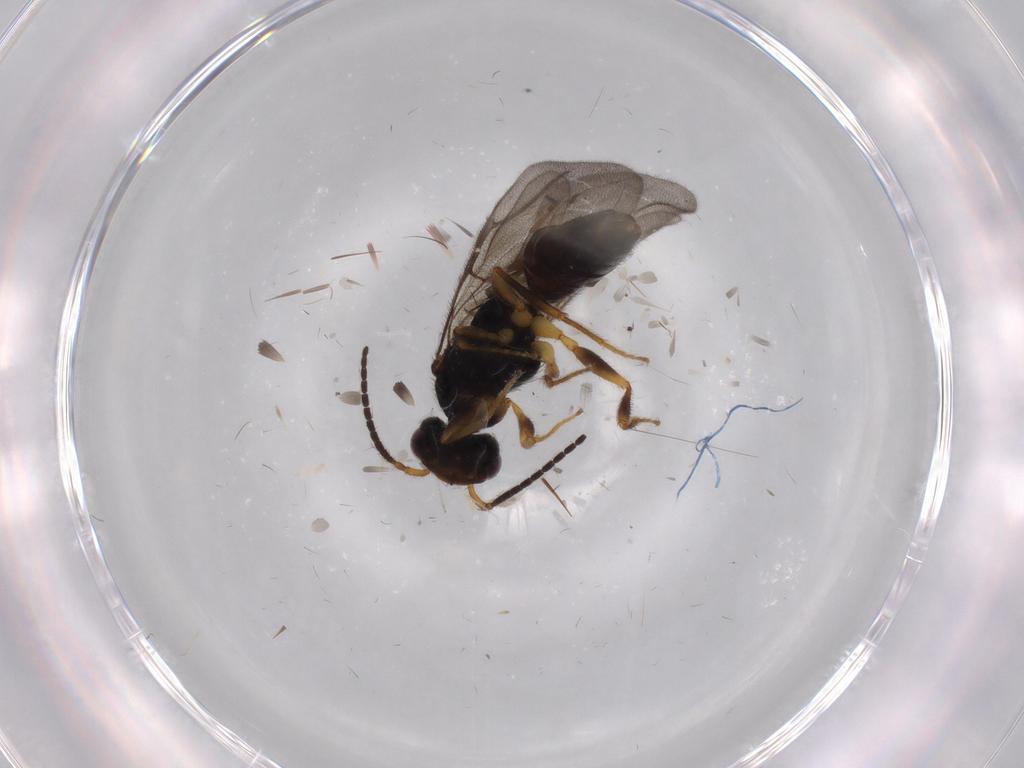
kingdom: Animalia
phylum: Arthropoda
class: Insecta
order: Hymenoptera
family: Bethylidae
